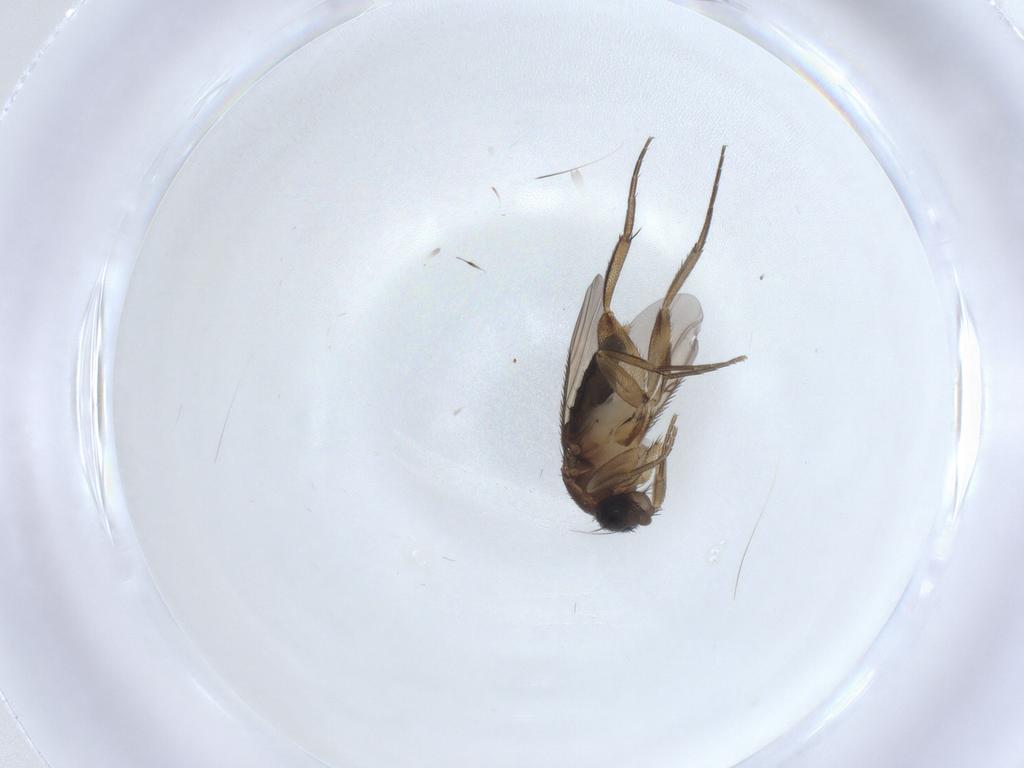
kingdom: Animalia
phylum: Arthropoda
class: Insecta
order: Diptera
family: Phoridae
